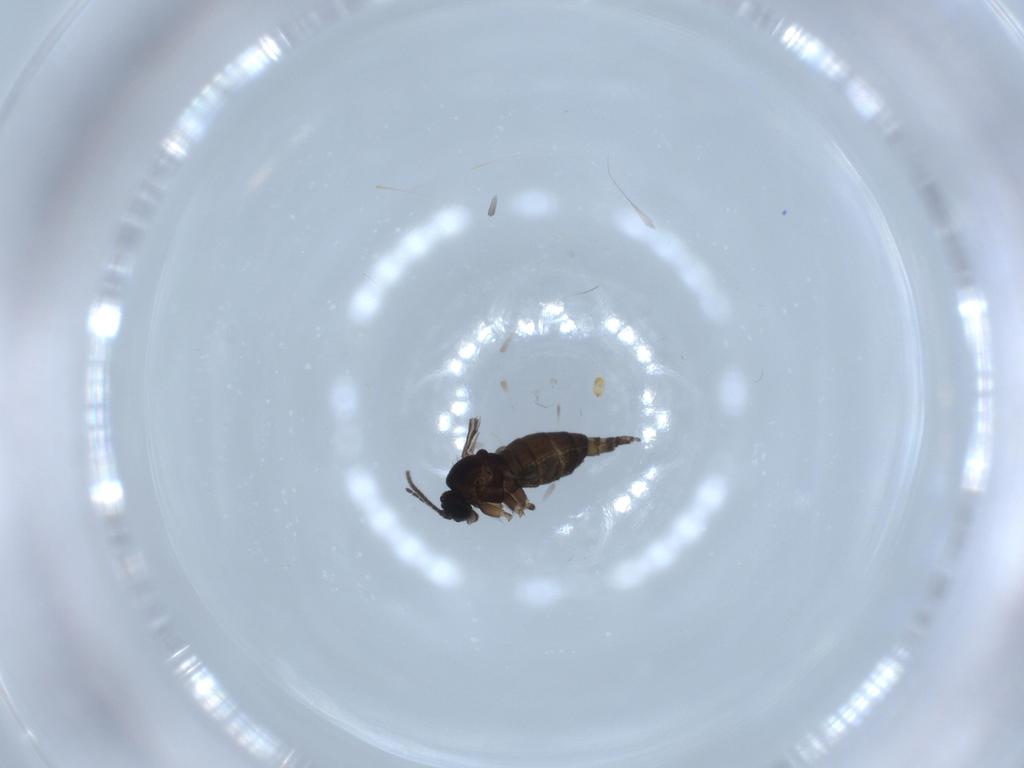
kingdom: Animalia
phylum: Arthropoda
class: Insecta
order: Diptera
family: Sciaridae
